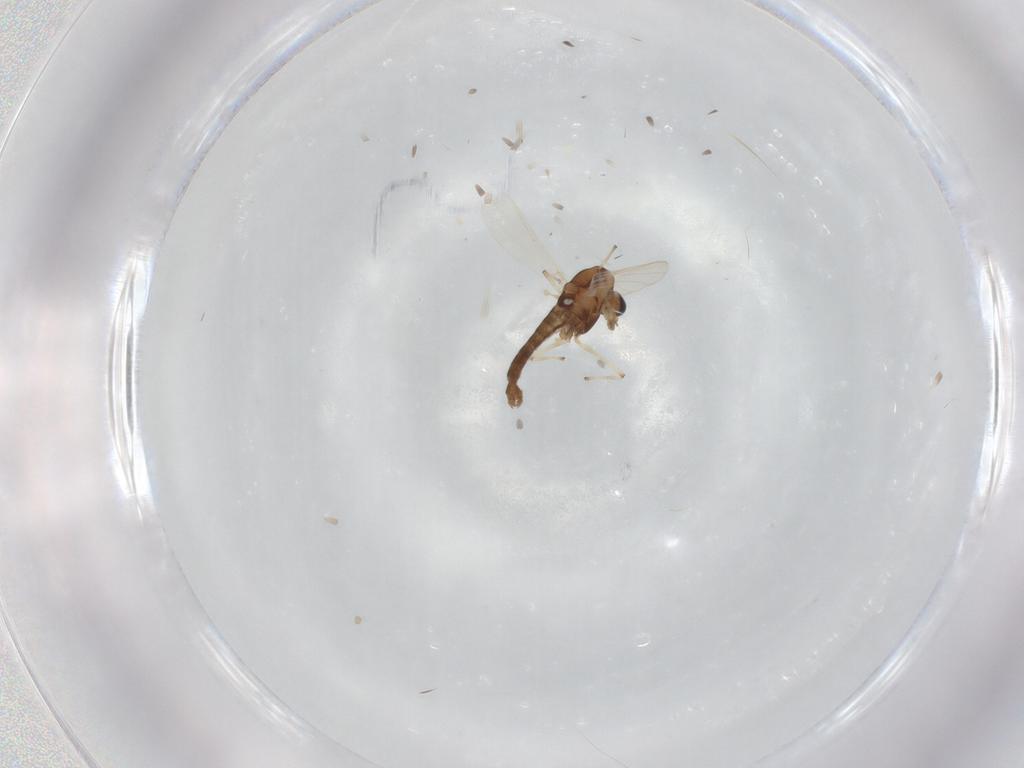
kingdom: Animalia
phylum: Arthropoda
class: Insecta
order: Diptera
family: Chironomidae
